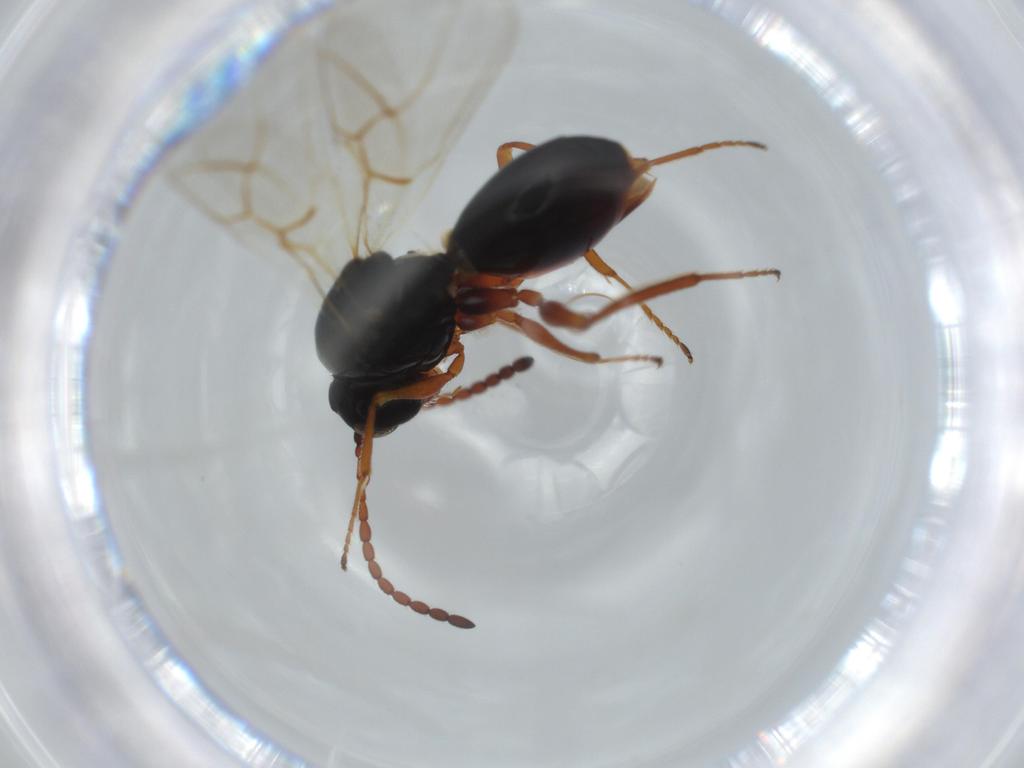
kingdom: Animalia
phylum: Arthropoda
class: Insecta
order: Hymenoptera
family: Figitidae
